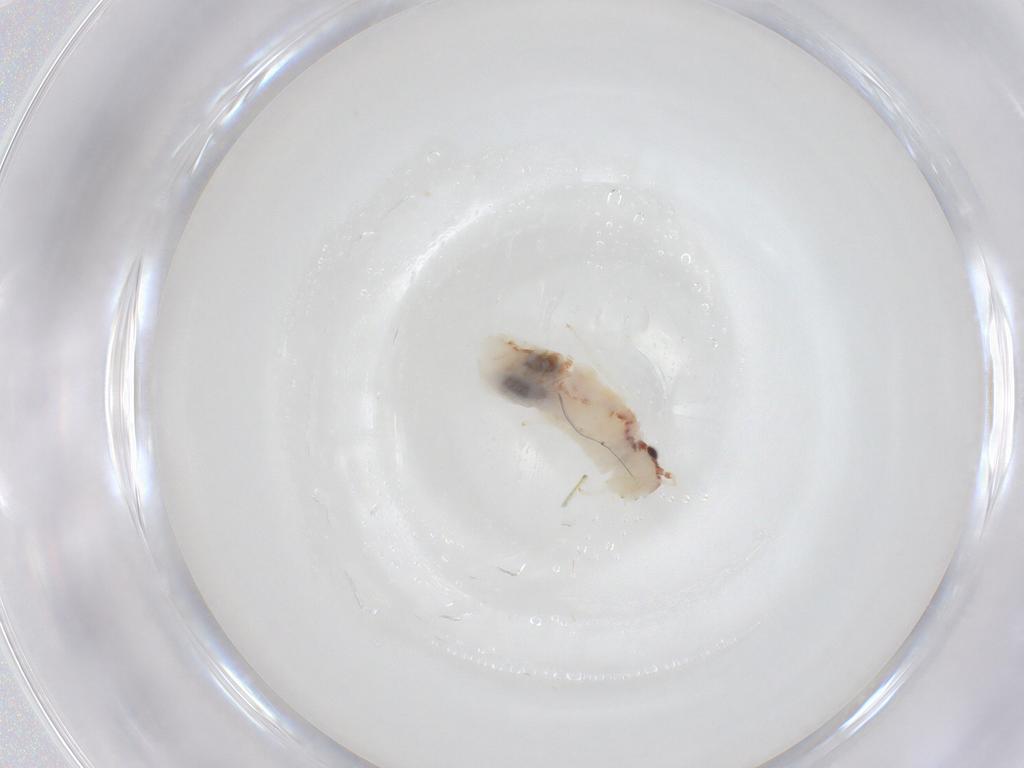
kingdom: Animalia
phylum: Arthropoda
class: Insecta
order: Psocodea
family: Caeciliusidae
